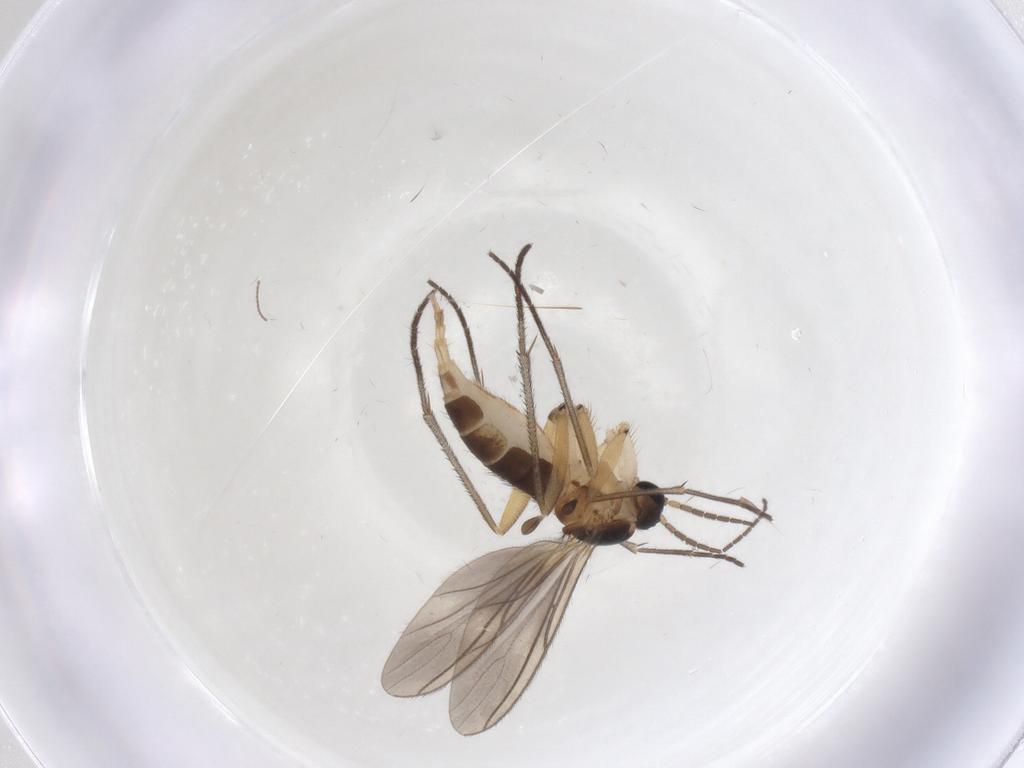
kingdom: Animalia
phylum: Arthropoda
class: Insecta
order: Diptera
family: Sciaridae
